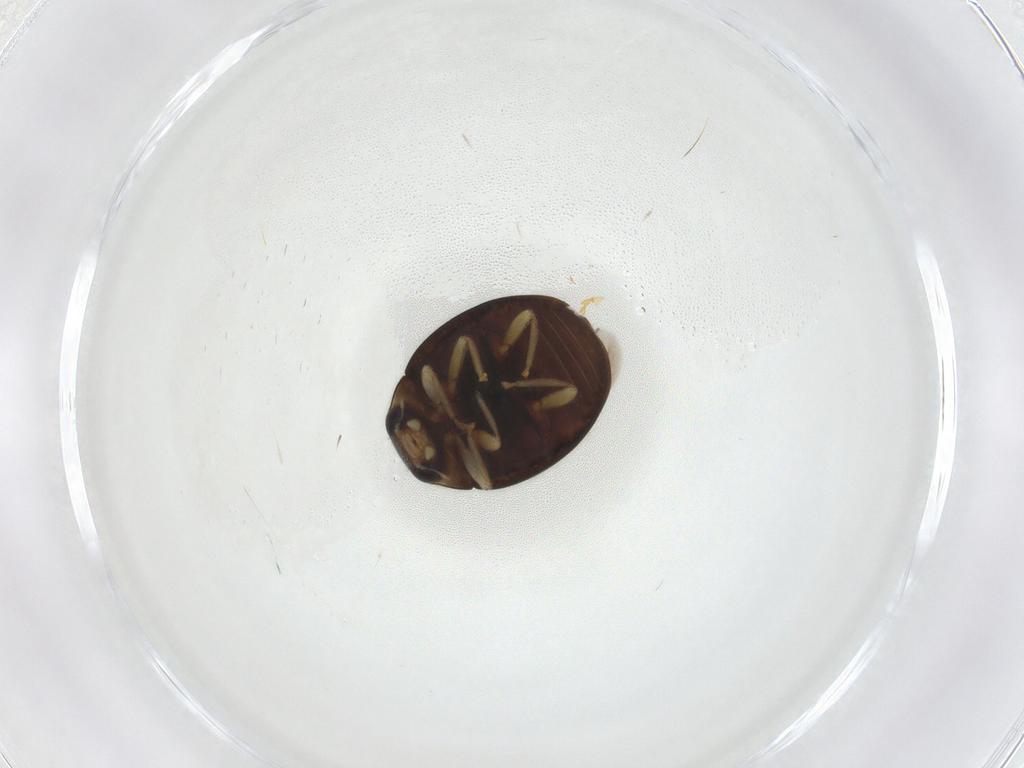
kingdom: Animalia
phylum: Arthropoda
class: Insecta
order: Coleoptera
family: Coccinellidae
